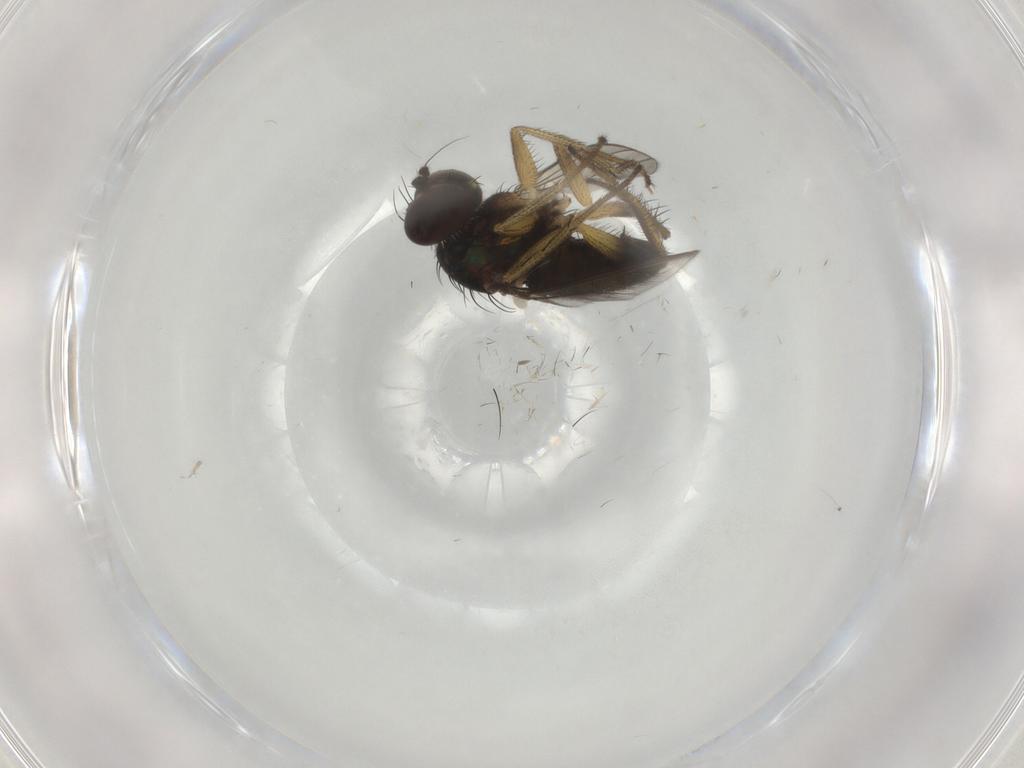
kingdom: Animalia
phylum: Arthropoda
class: Insecta
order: Diptera
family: Dolichopodidae
